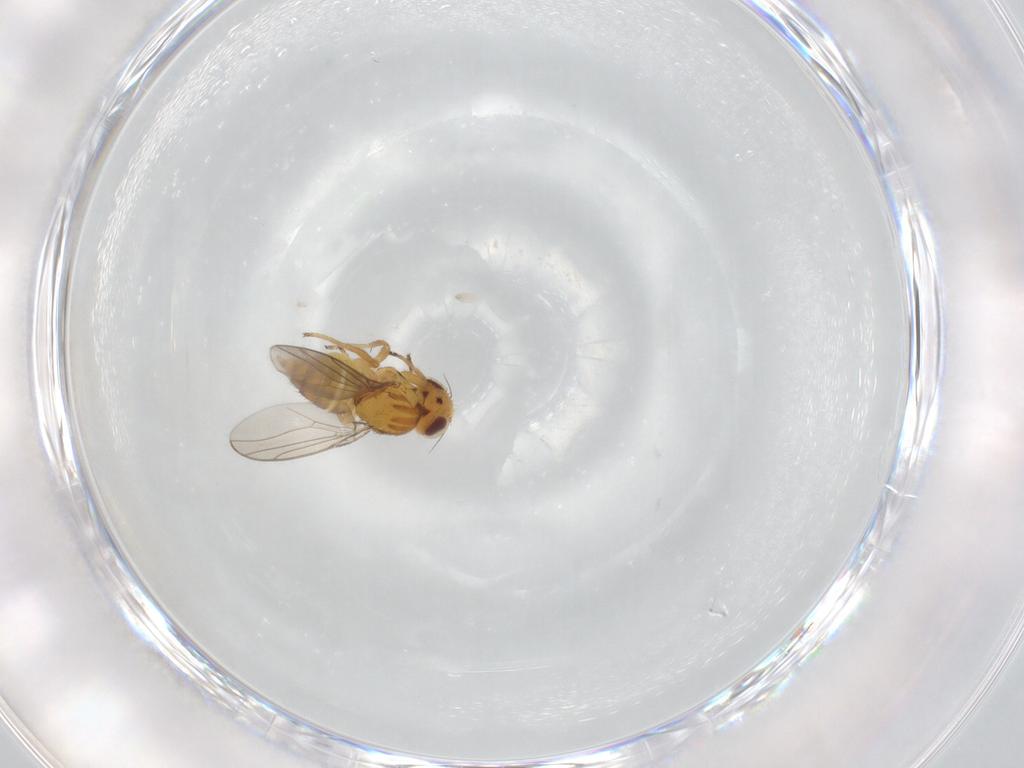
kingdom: Animalia
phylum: Arthropoda
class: Insecta
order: Diptera
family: Chloropidae
